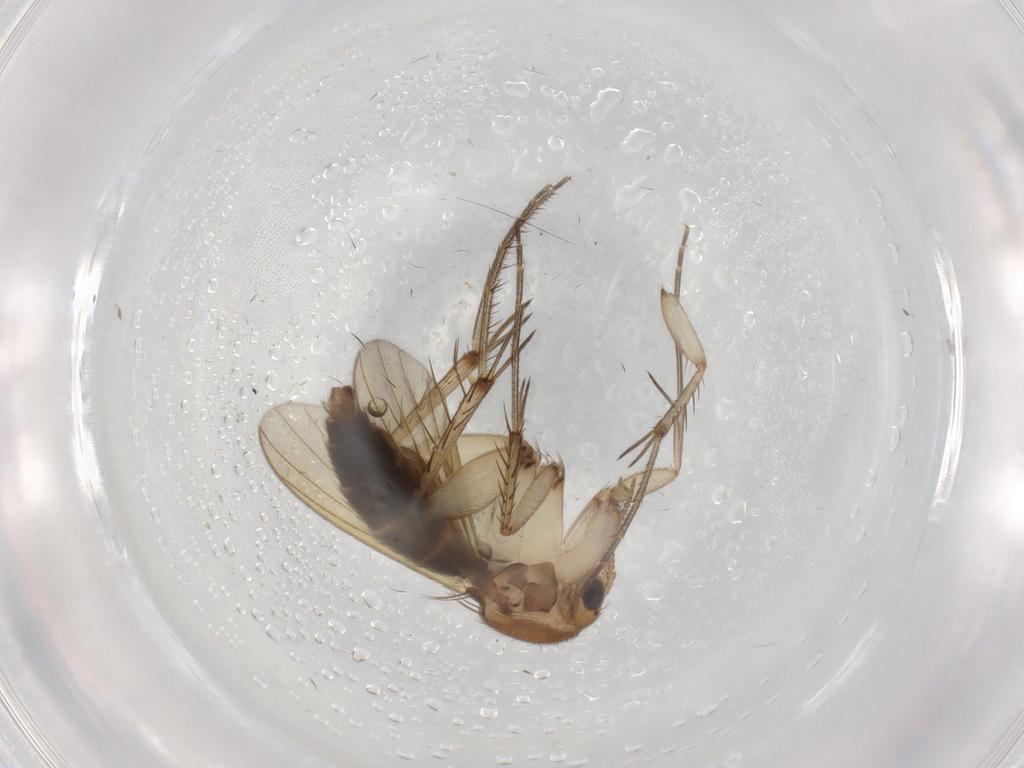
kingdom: Animalia
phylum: Arthropoda
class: Insecta
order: Diptera
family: Mycetophilidae
